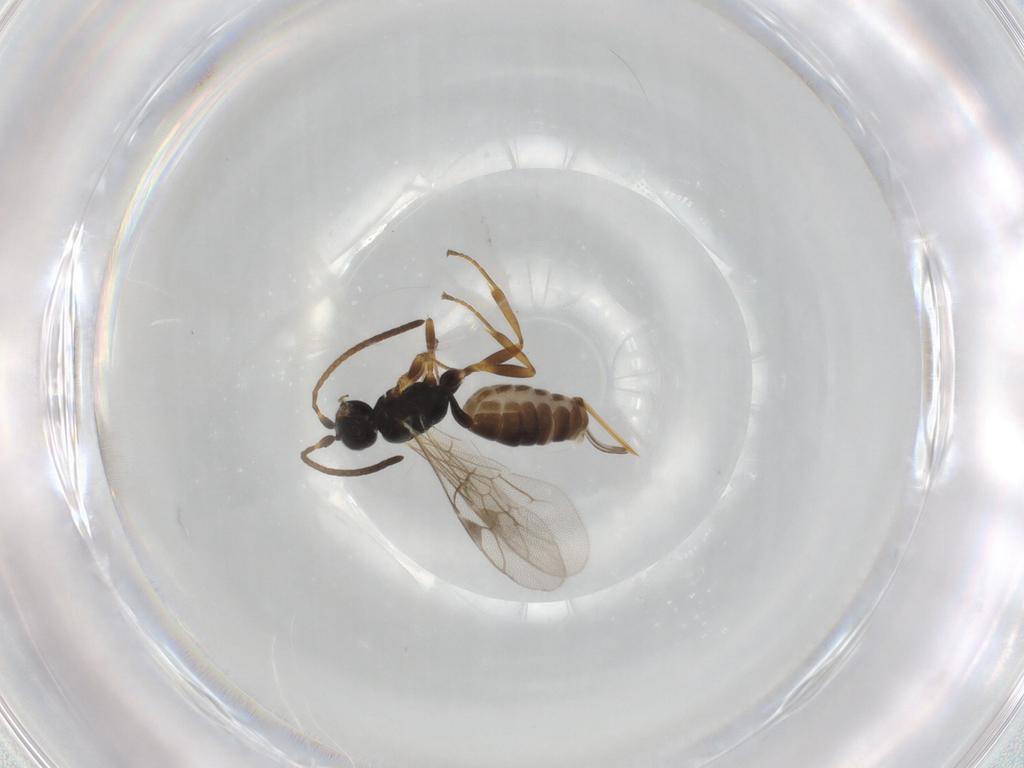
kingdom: Animalia
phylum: Arthropoda
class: Insecta
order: Hymenoptera
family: Ichneumonidae
